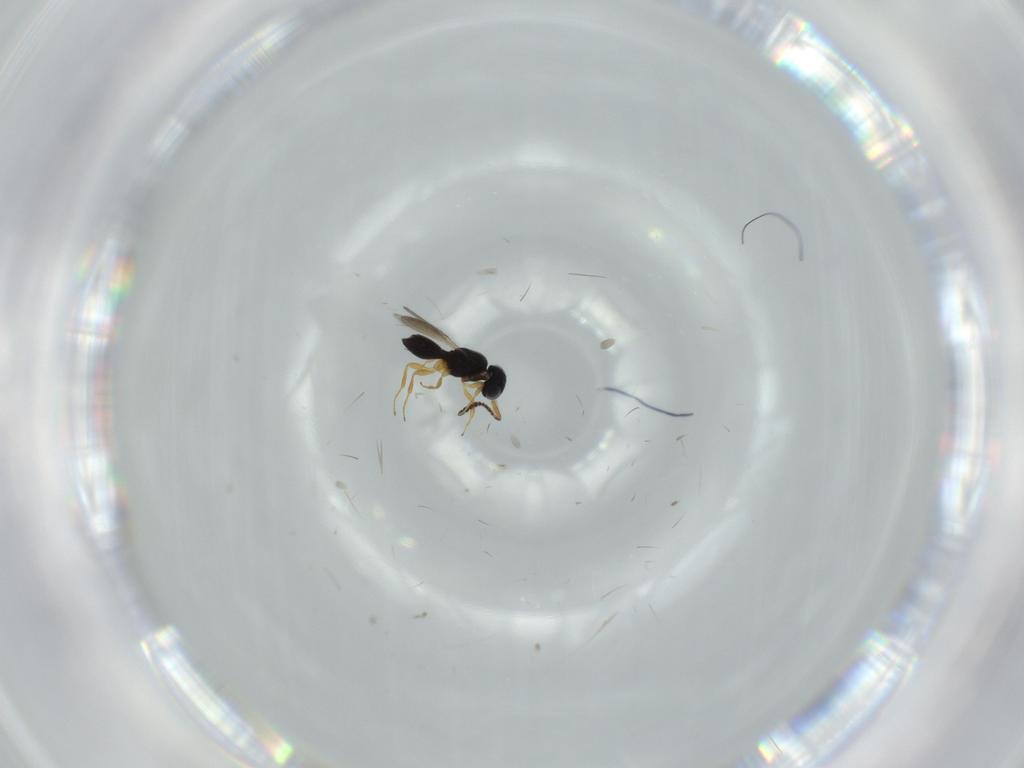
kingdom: Animalia
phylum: Arthropoda
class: Insecta
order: Hymenoptera
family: Scelionidae
